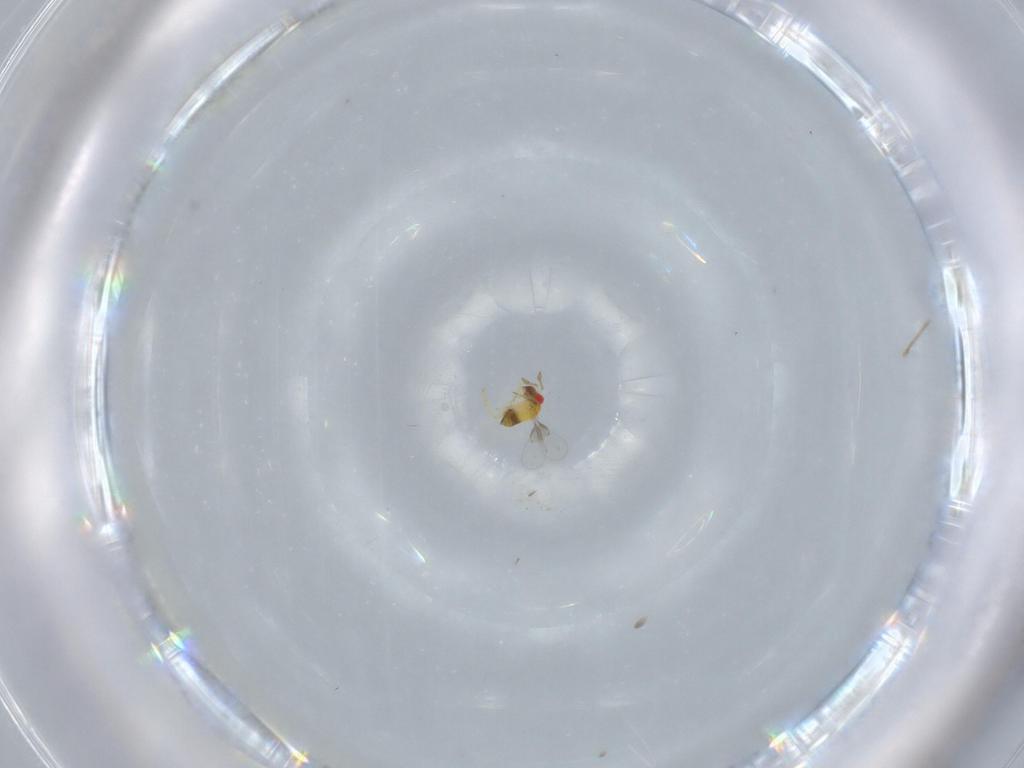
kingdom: Animalia
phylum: Arthropoda
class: Insecta
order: Hymenoptera
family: Trichogrammatidae
